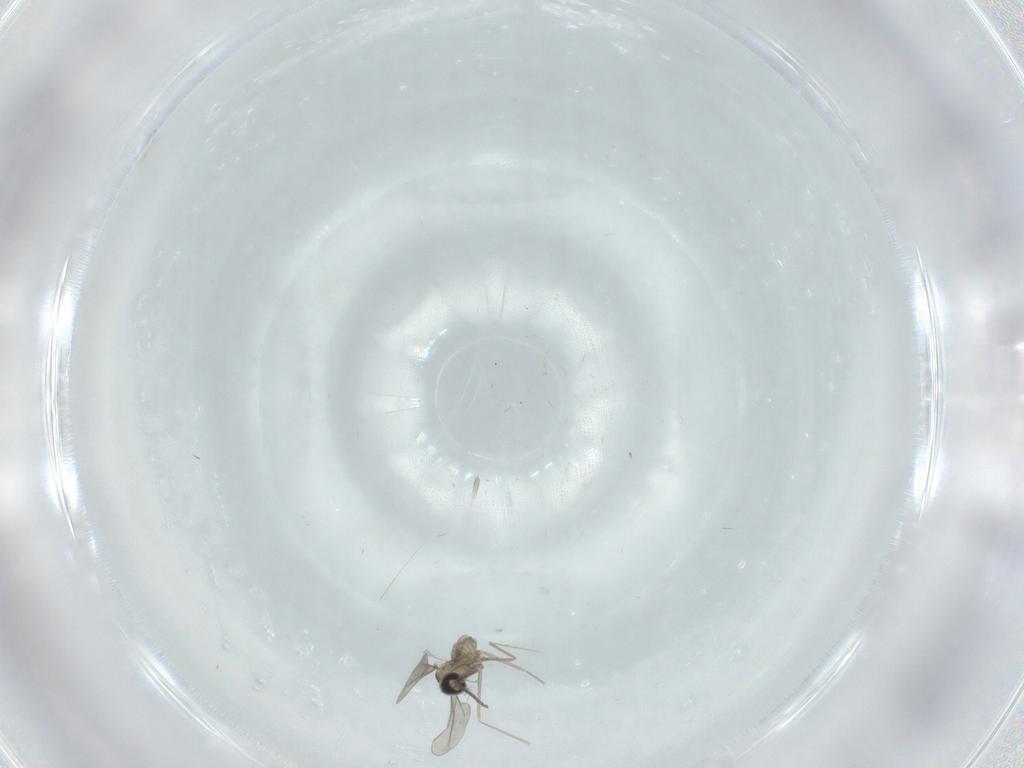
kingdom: Animalia
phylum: Arthropoda
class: Insecta
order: Diptera
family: Cecidomyiidae
